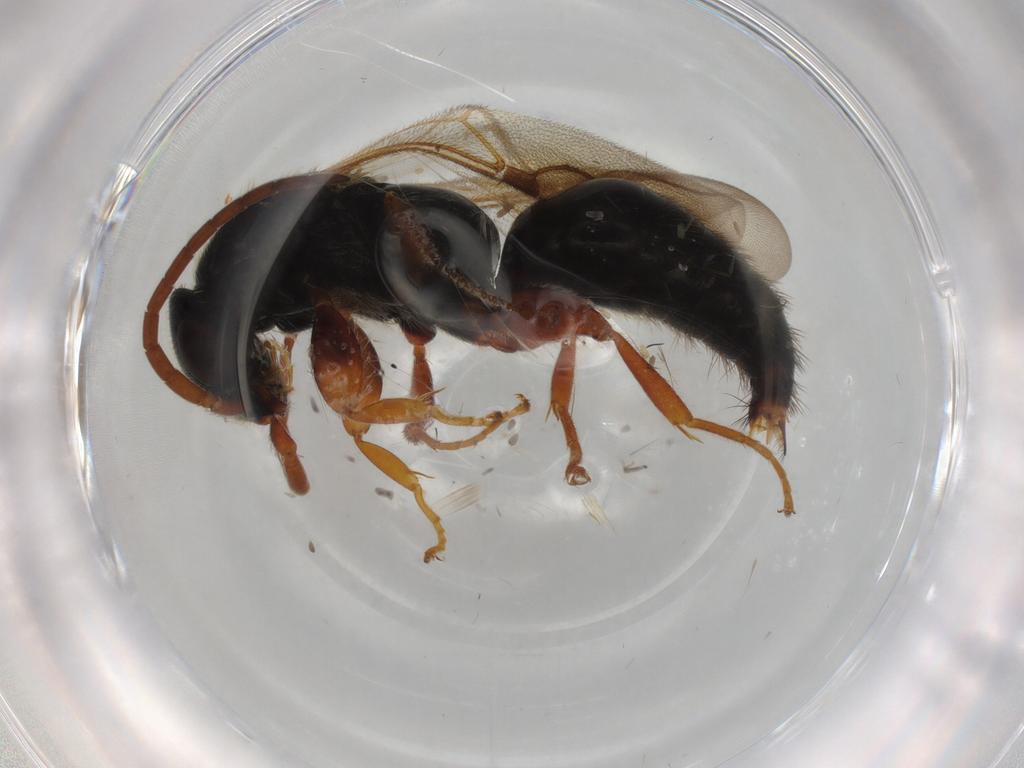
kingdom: Animalia
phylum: Arthropoda
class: Insecta
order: Hymenoptera
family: Bethylidae
